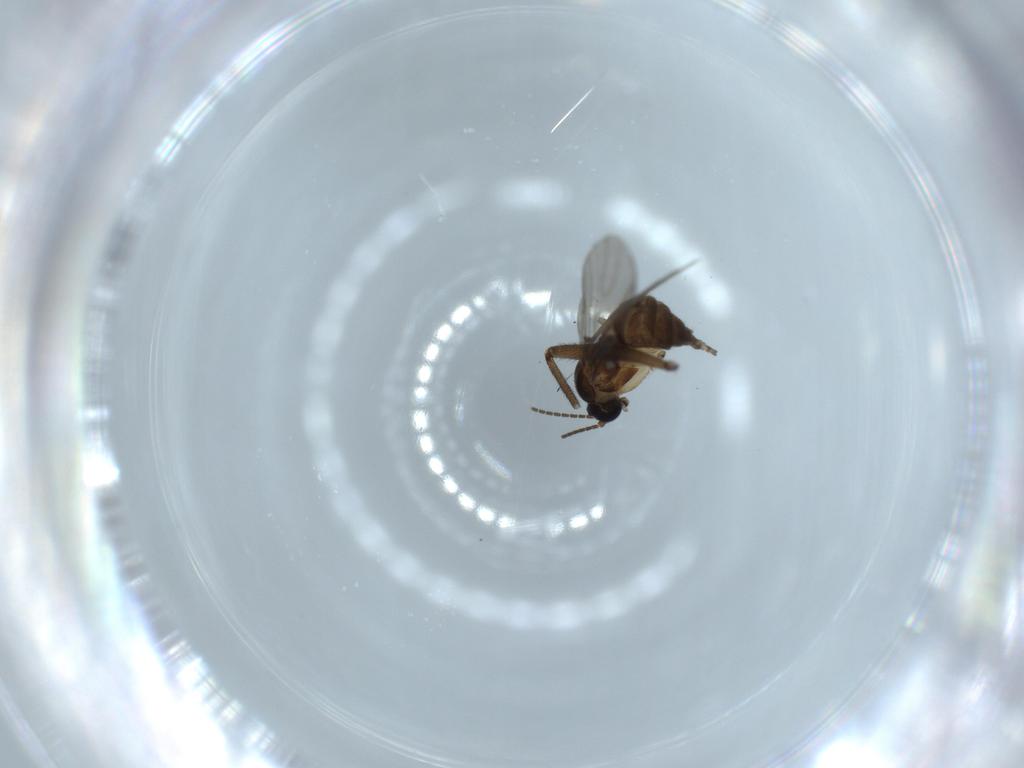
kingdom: Animalia
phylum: Arthropoda
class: Insecta
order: Diptera
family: Sciaridae
